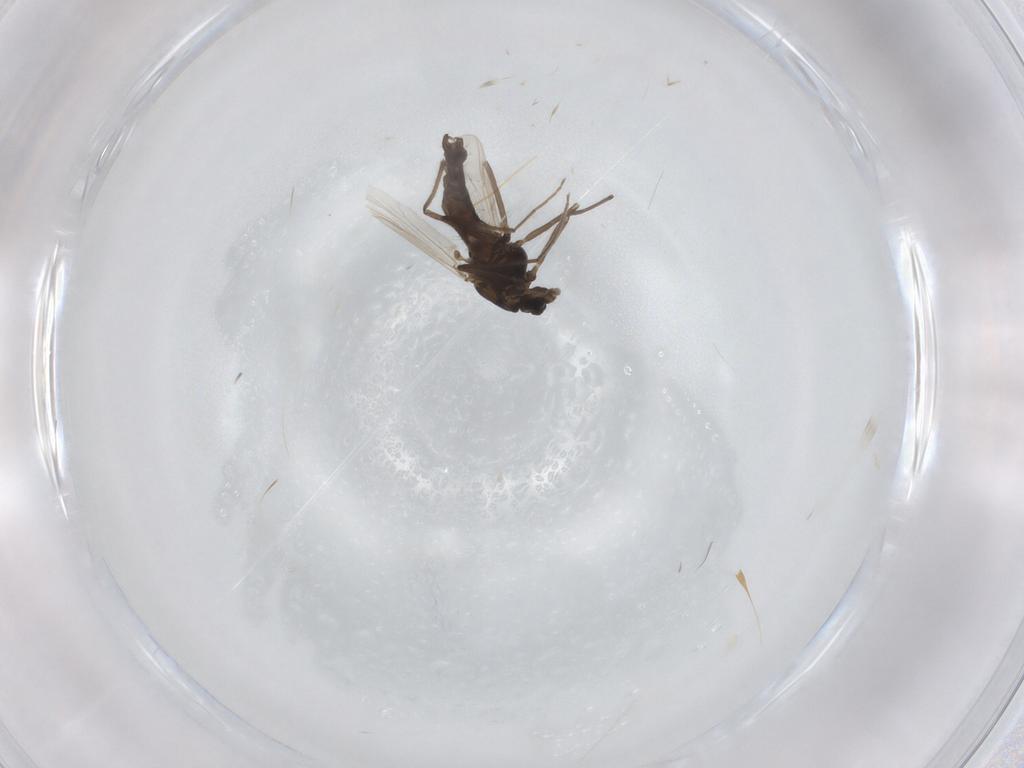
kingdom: Animalia
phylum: Arthropoda
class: Insecta
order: Diptera
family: Chironomidae
